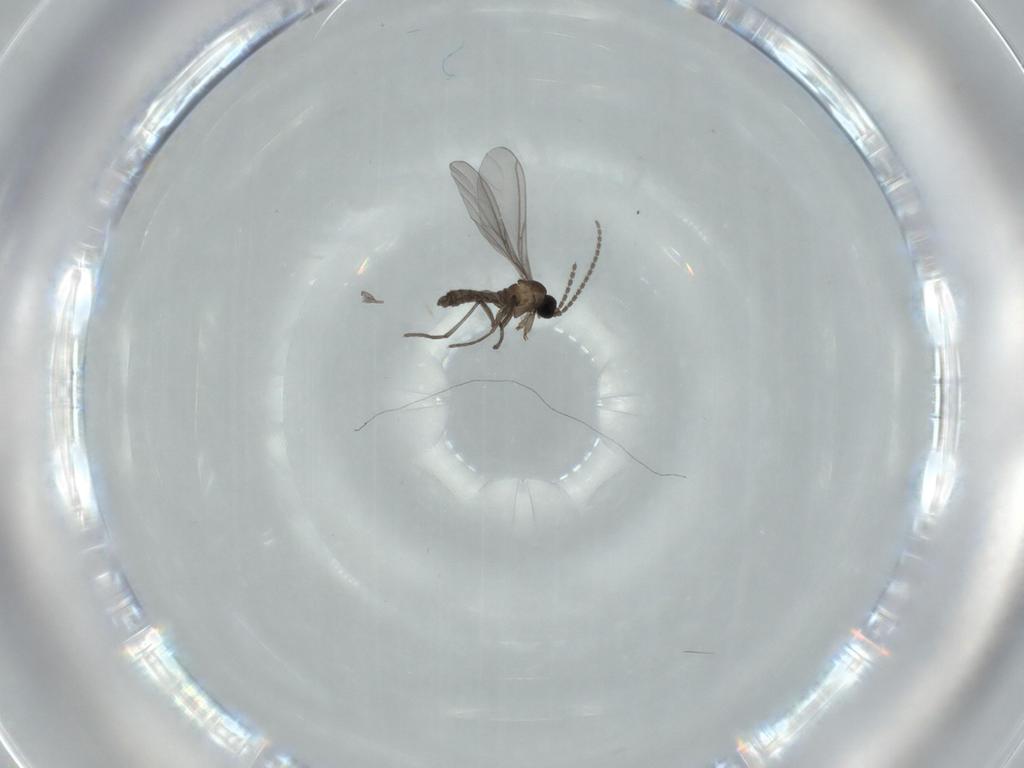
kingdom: Animalia
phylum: Arthropoda
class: Insecta
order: Diptera
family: Sciaridae
